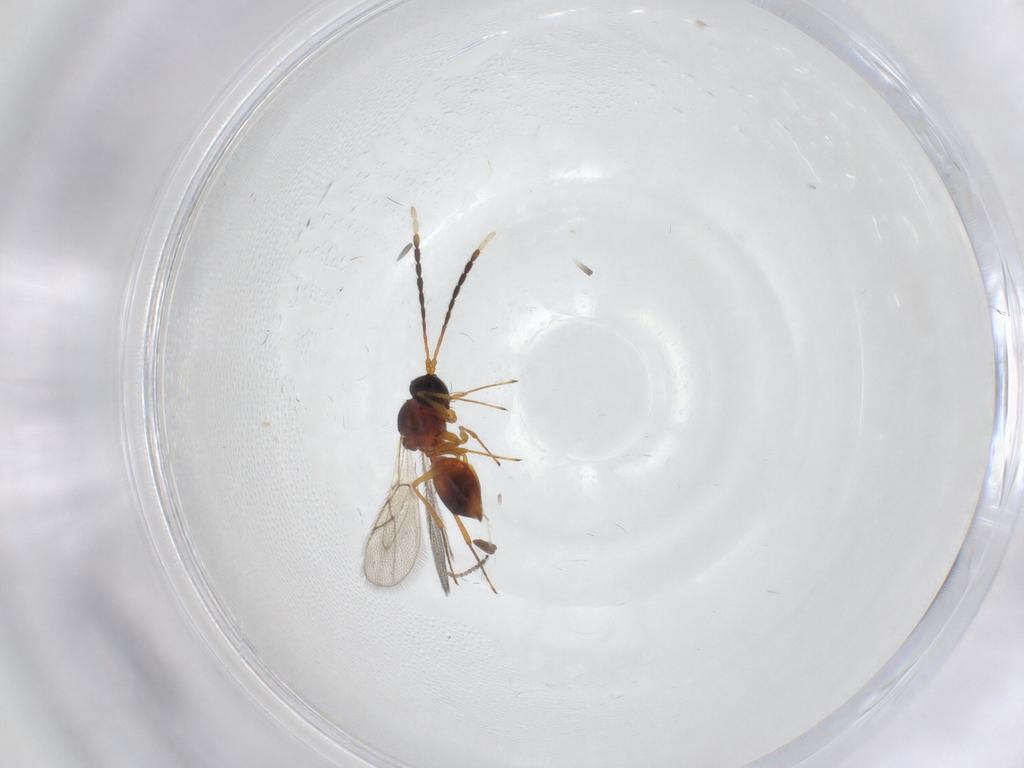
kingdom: Animalia
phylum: Arthropoda
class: Insecta
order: Hymenoptera
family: Figitidae
